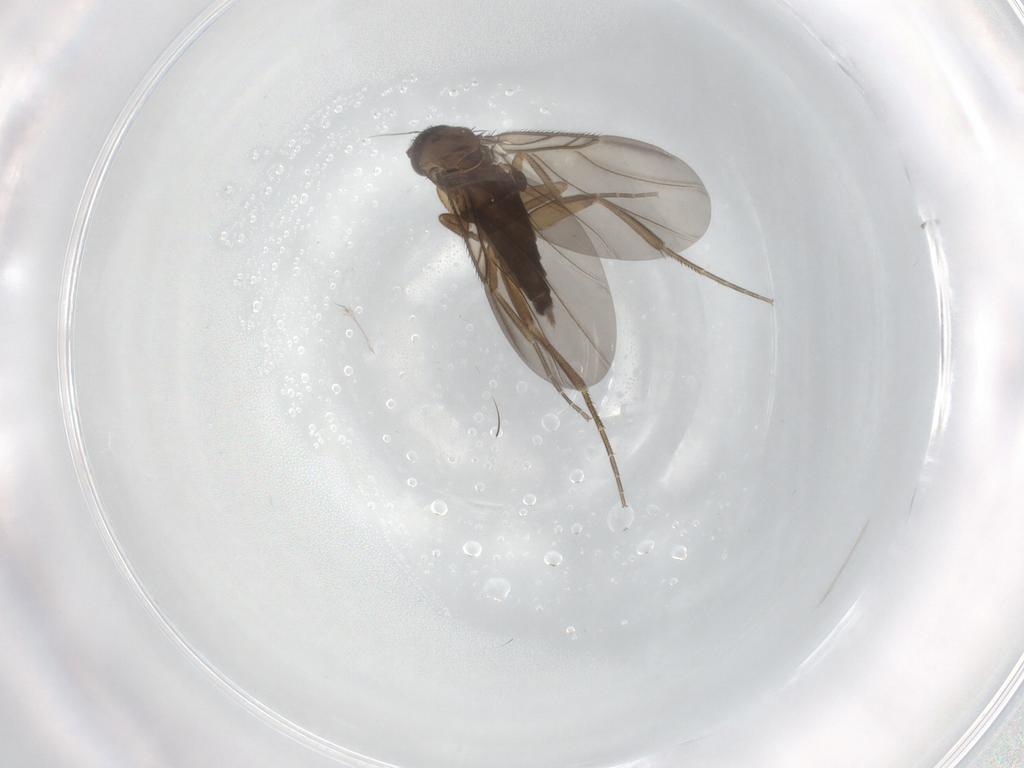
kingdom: Animalia
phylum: Arthropoda
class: Insecta
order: Diptera
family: Phoridae
